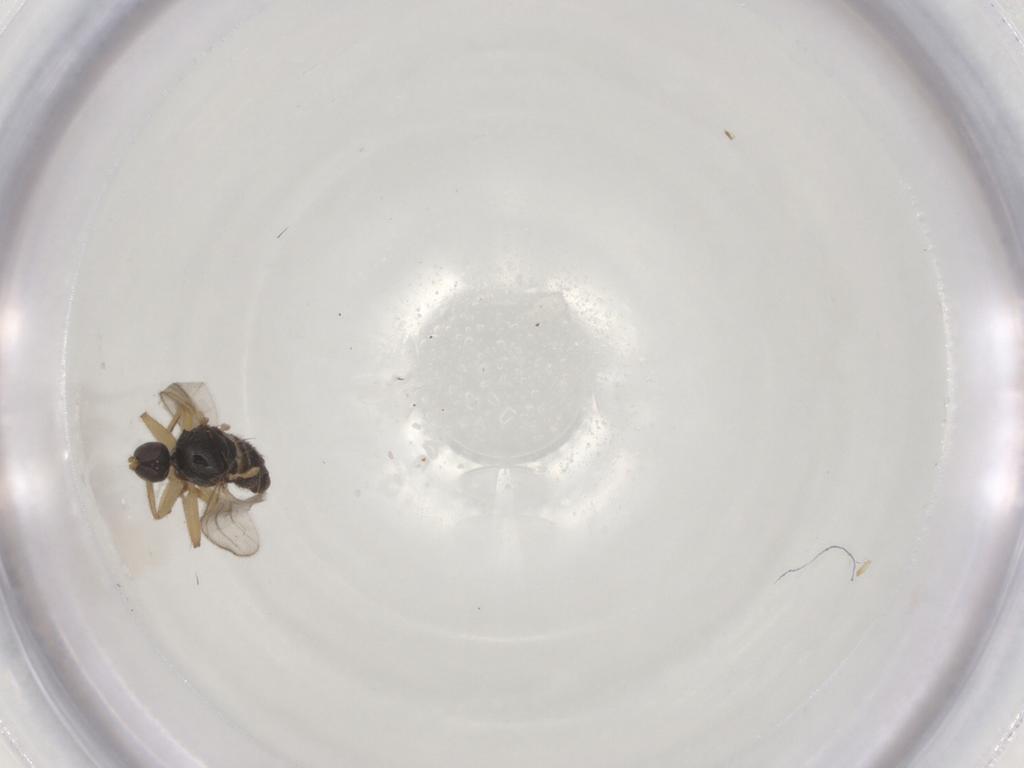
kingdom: Animalia
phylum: Arthropoda
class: Insecta
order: Diptera
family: Hybotidae
